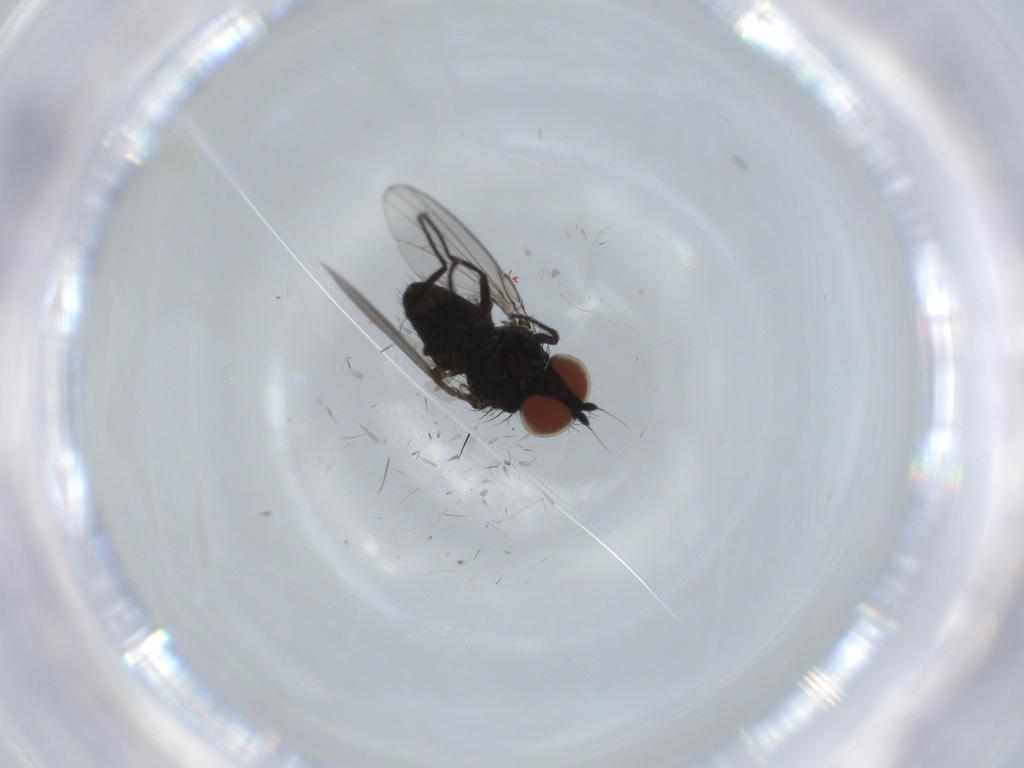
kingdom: Animalia
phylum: Arthropoda
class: Insecta
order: Diptera
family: Milichiidae
